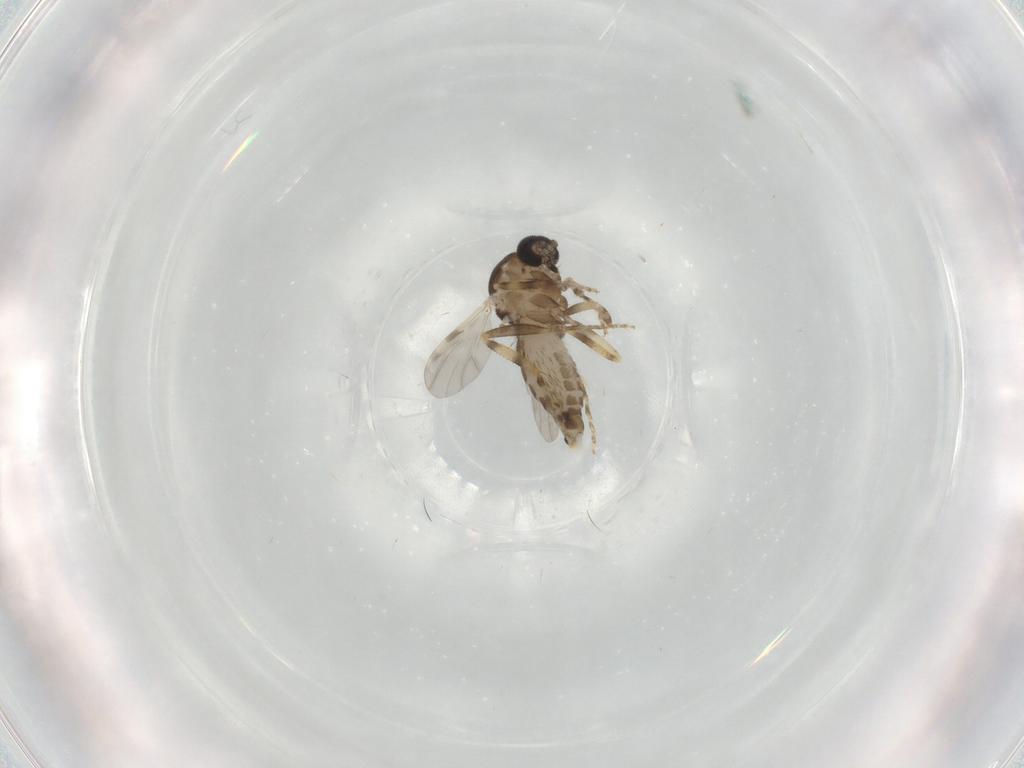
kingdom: Animalia
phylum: Arthropoda
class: Insecta
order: Diptera
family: Ceratopogonidae
